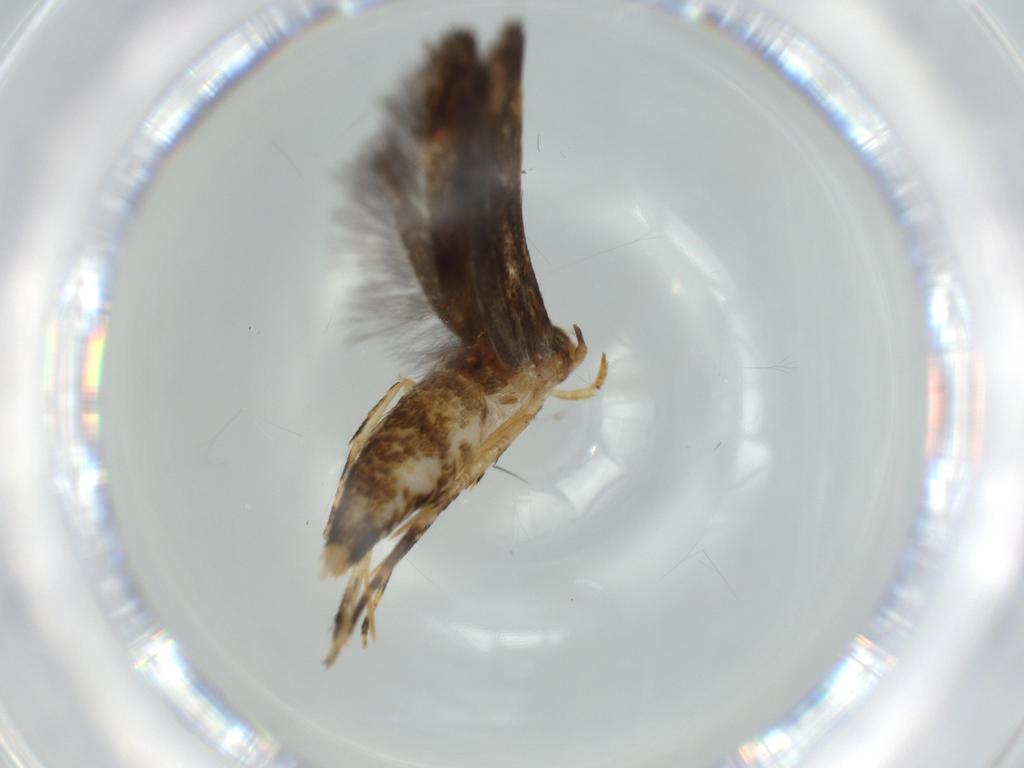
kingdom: Animalia
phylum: Arthropoda
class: Insecta
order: Lepidoptera
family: Momphidae
